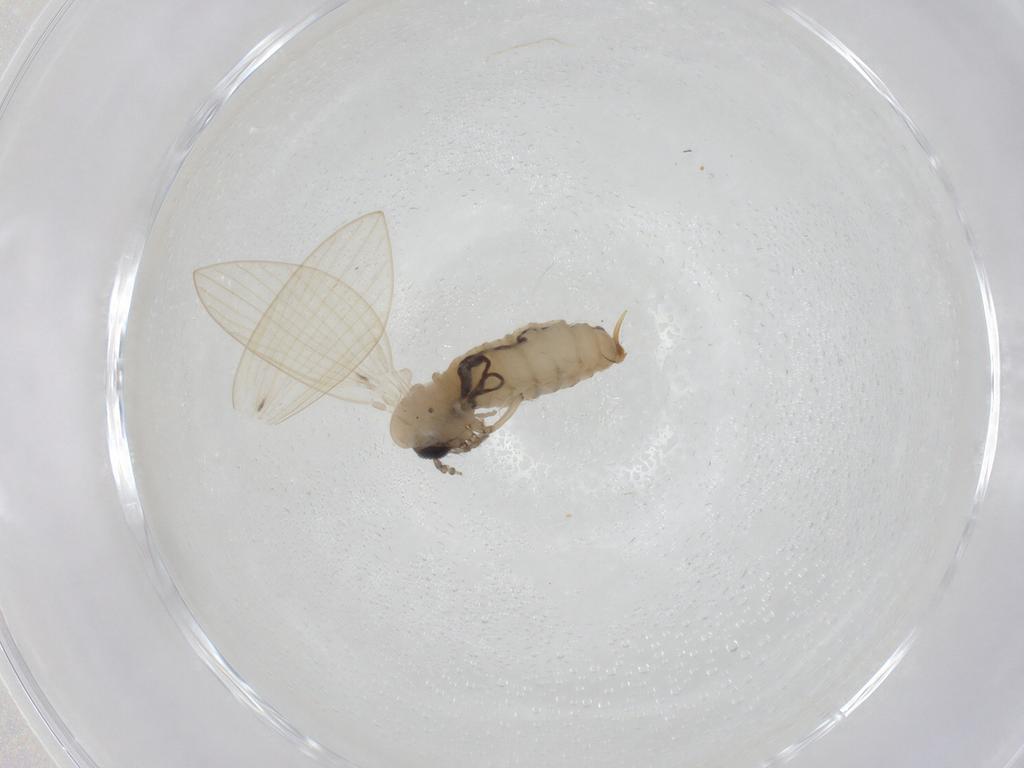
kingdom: Animalia
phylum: Arthropoda
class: Insecta
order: Diptera
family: Psychodidae
